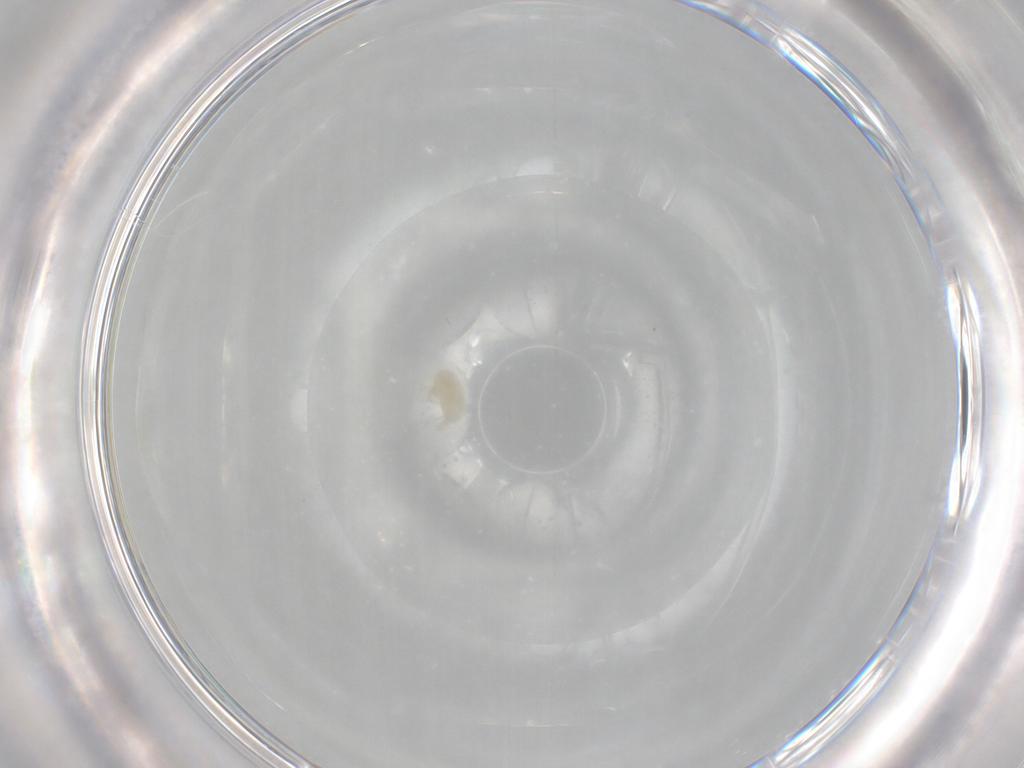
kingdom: Animalia
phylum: Arthropoda
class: Arachnida
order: Trombidiformes
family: Eupodidae
